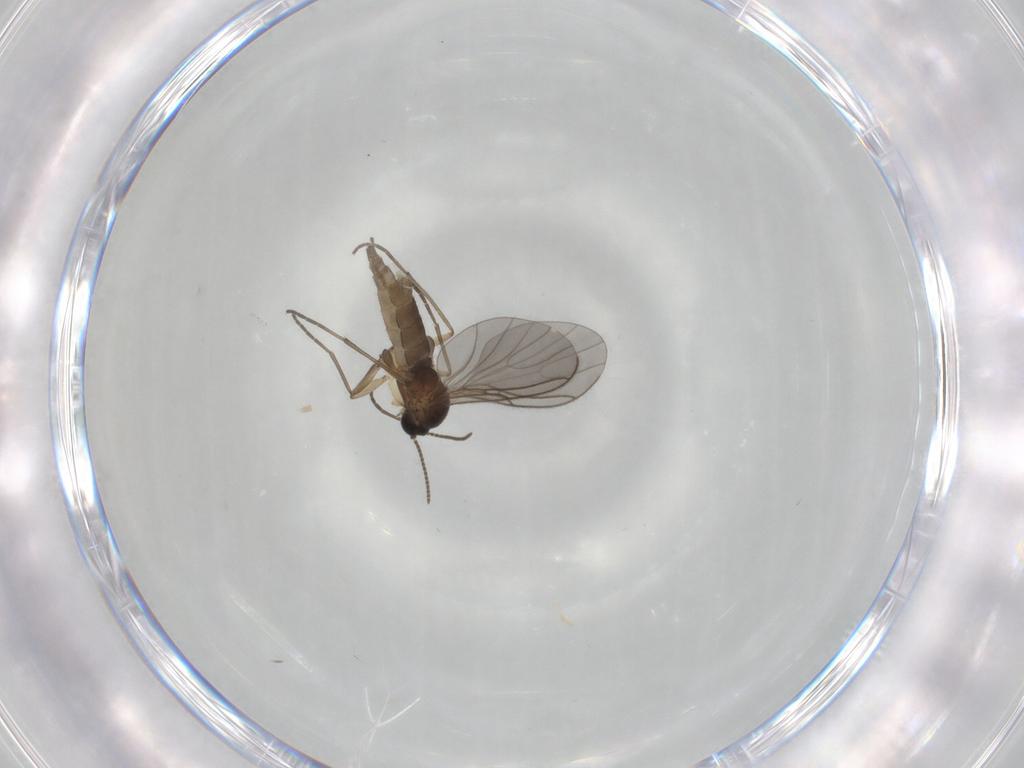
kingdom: Animalia
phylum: Arthropoda
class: Insecta
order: Diptera
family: Sciaridae
